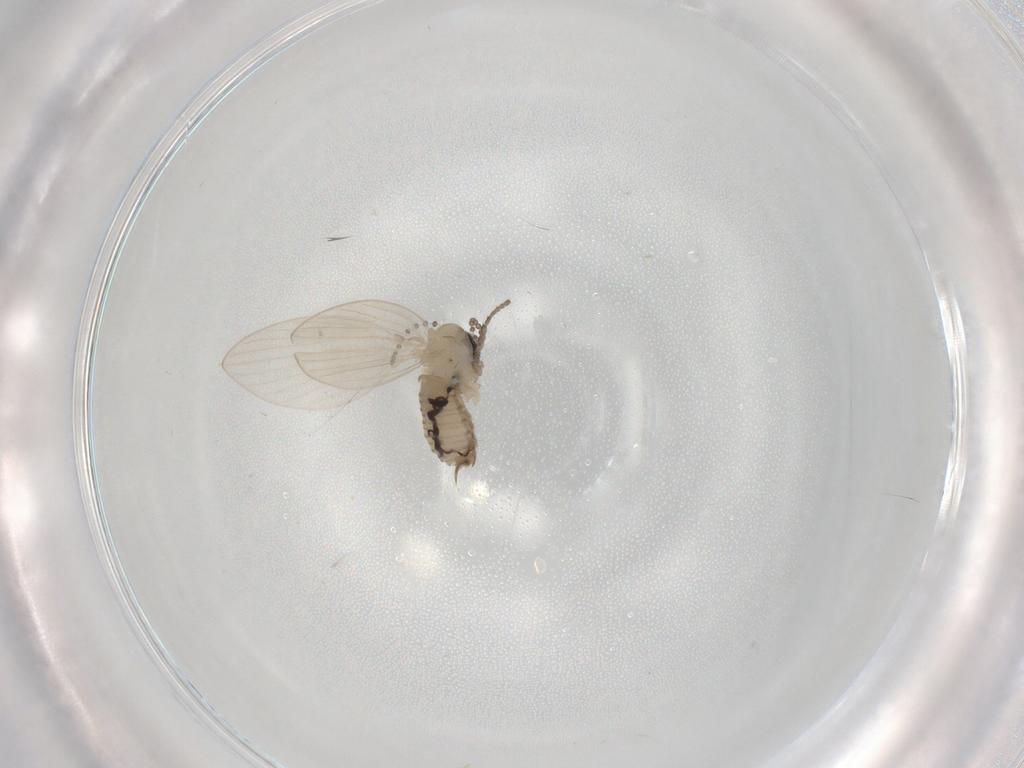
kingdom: Animalia
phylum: Arthropoda
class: Insecta
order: Diptera
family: Psychodidae
